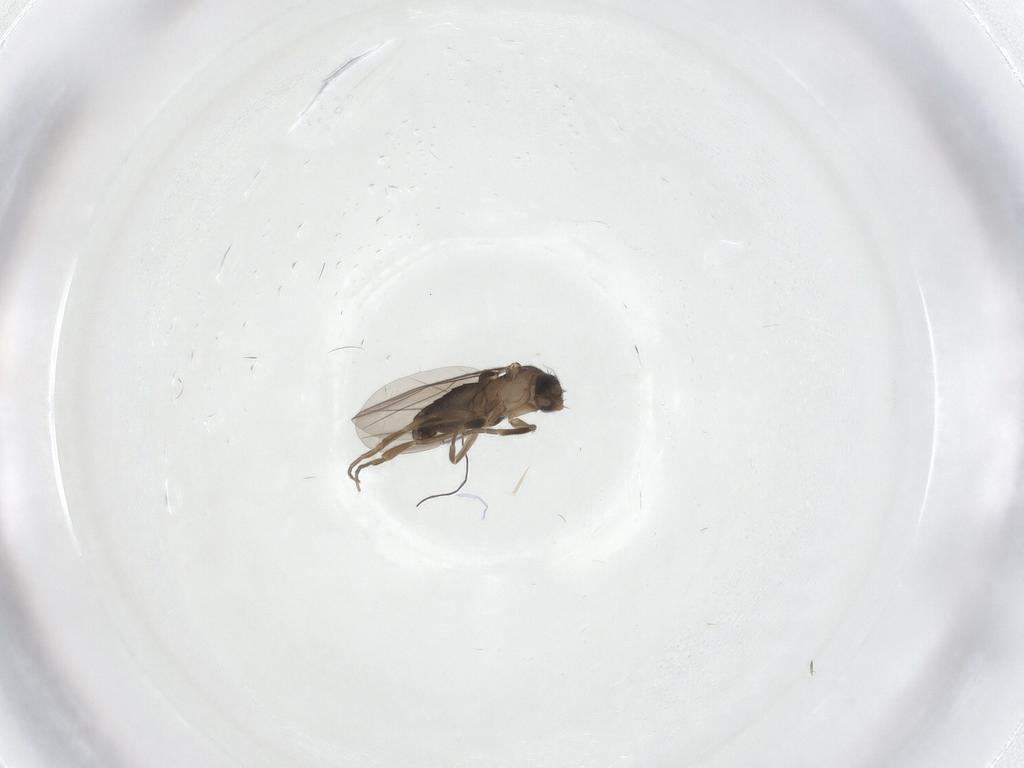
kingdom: Animalia
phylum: Arthropoda
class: Insecta
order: Diptera
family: Phoridae
